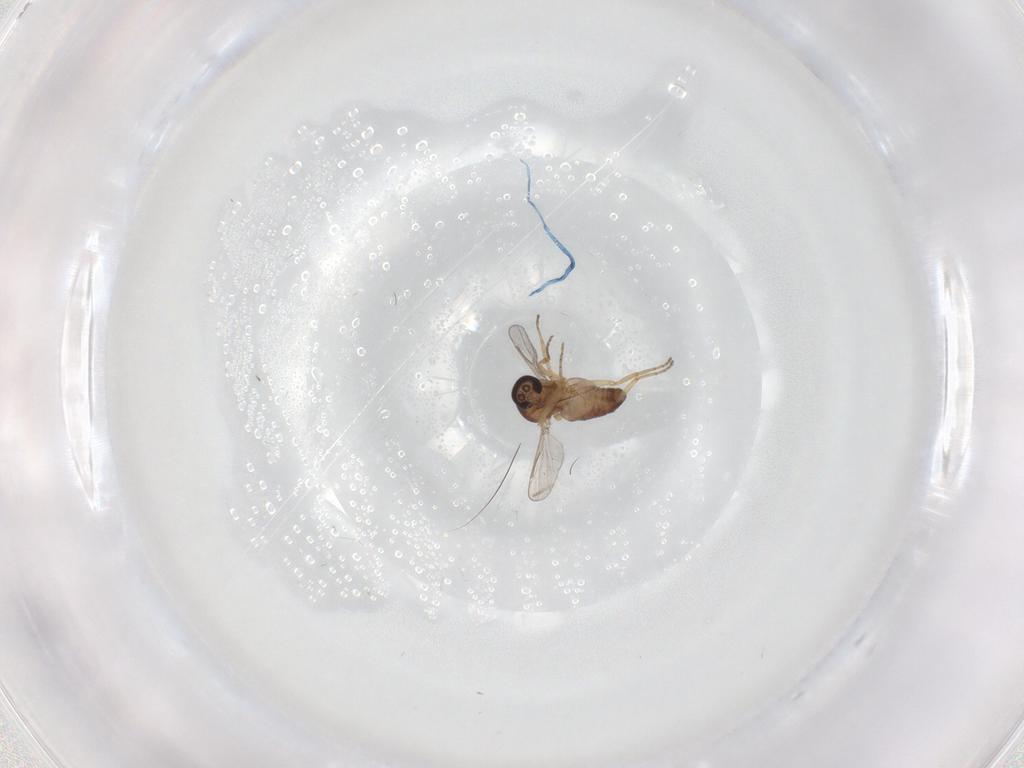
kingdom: Animalia
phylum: Arthropoda
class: Insecta
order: Diptera
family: Ceratopogonidae
